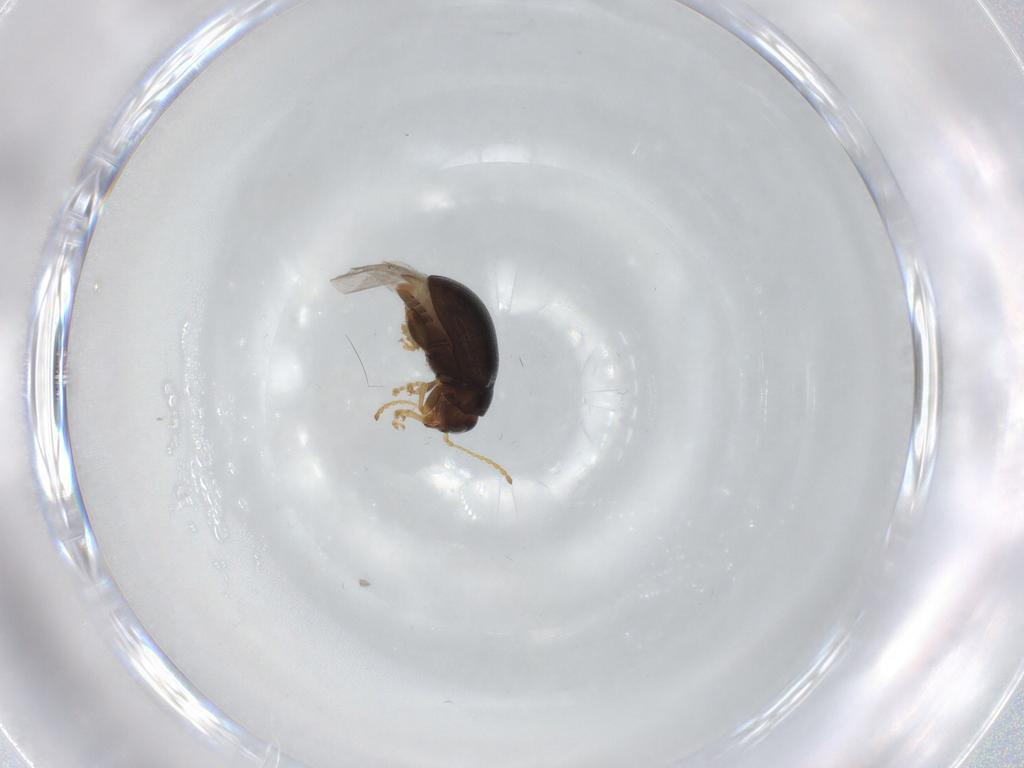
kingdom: Animalia
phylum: Arthropoda
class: Insecta
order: Coleoptera
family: Chrysomelidae
